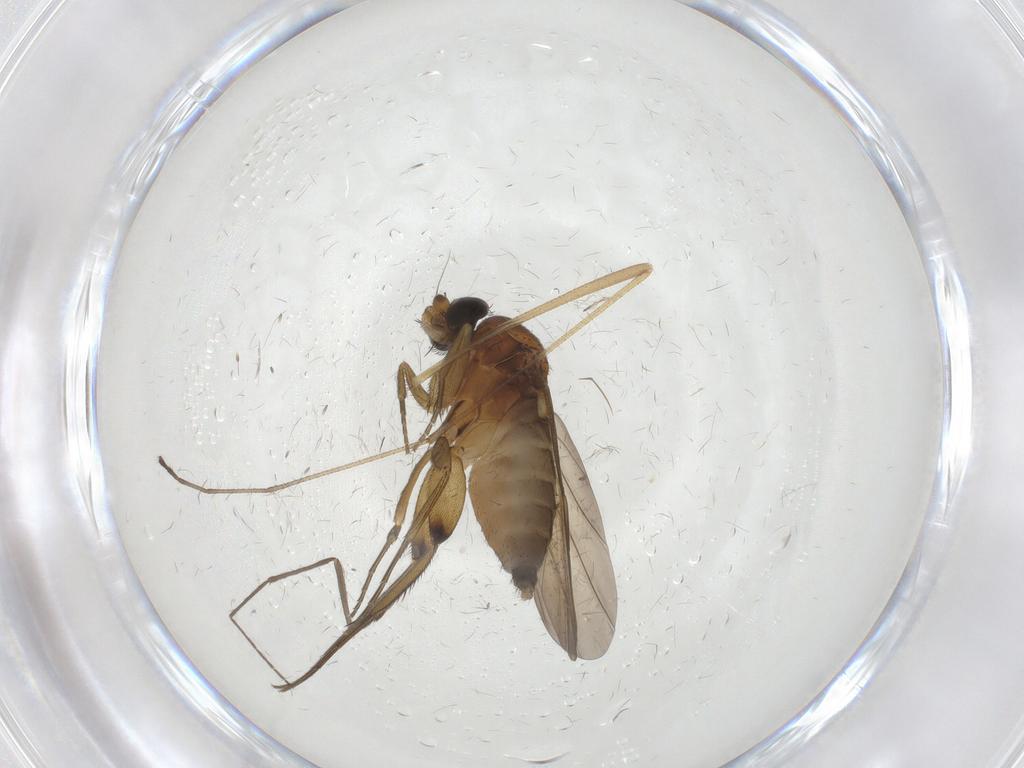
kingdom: Animalia
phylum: Arthropoda
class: Insecta
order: Diptera
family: Phoridae
